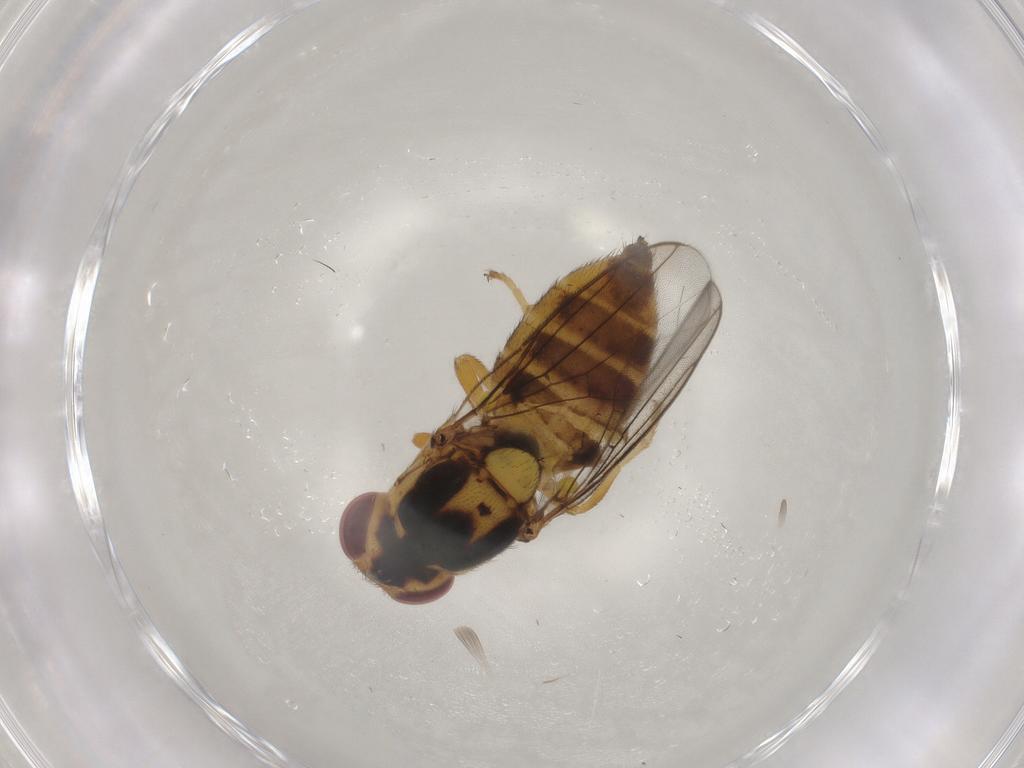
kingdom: Animalia
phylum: Arthropoda
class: Insecta
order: Diptera
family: Chloropidae
